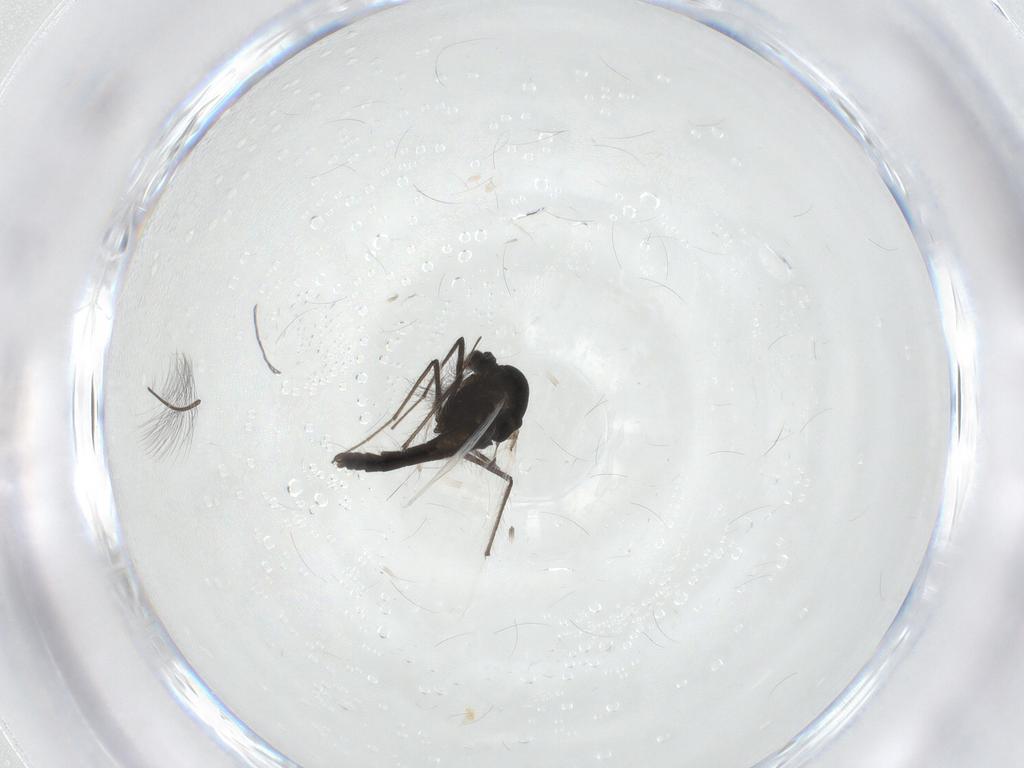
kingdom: Animalia
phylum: Arthropoda
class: Insecta
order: Diptera
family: Chironomidae
